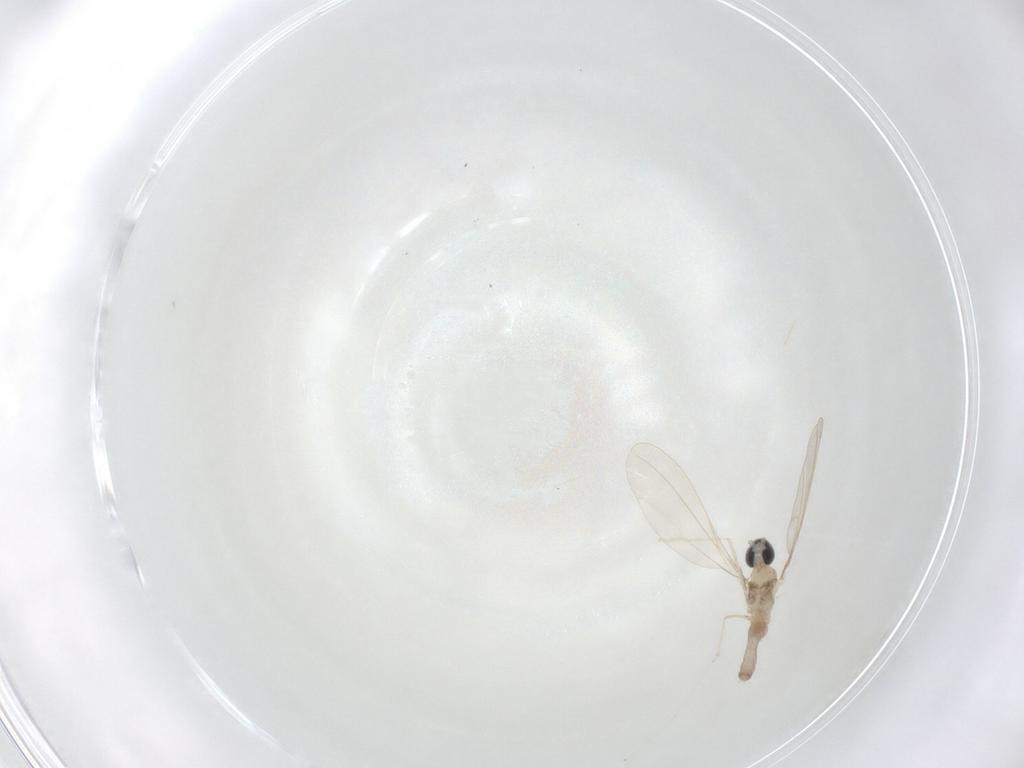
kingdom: Animalia
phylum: Arthropoda
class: Insecta
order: Diptera
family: Cecidomyiidae
